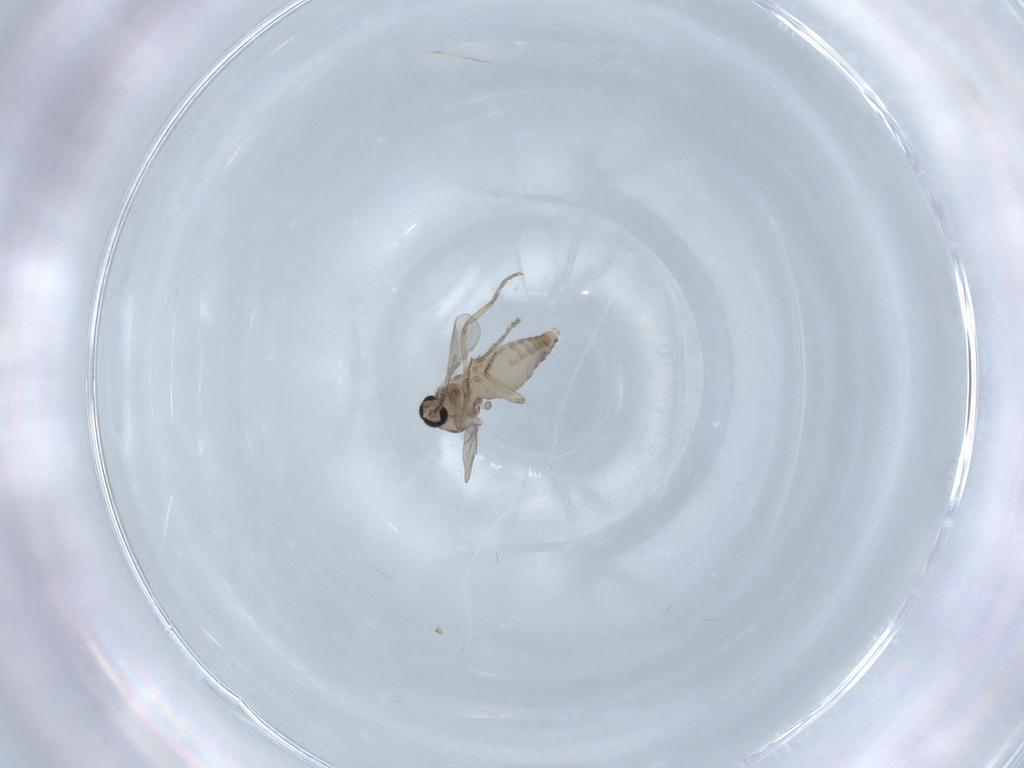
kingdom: Animalia
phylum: Arthropoda
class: Insecta
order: Diptera
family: Ceratopogonidae
